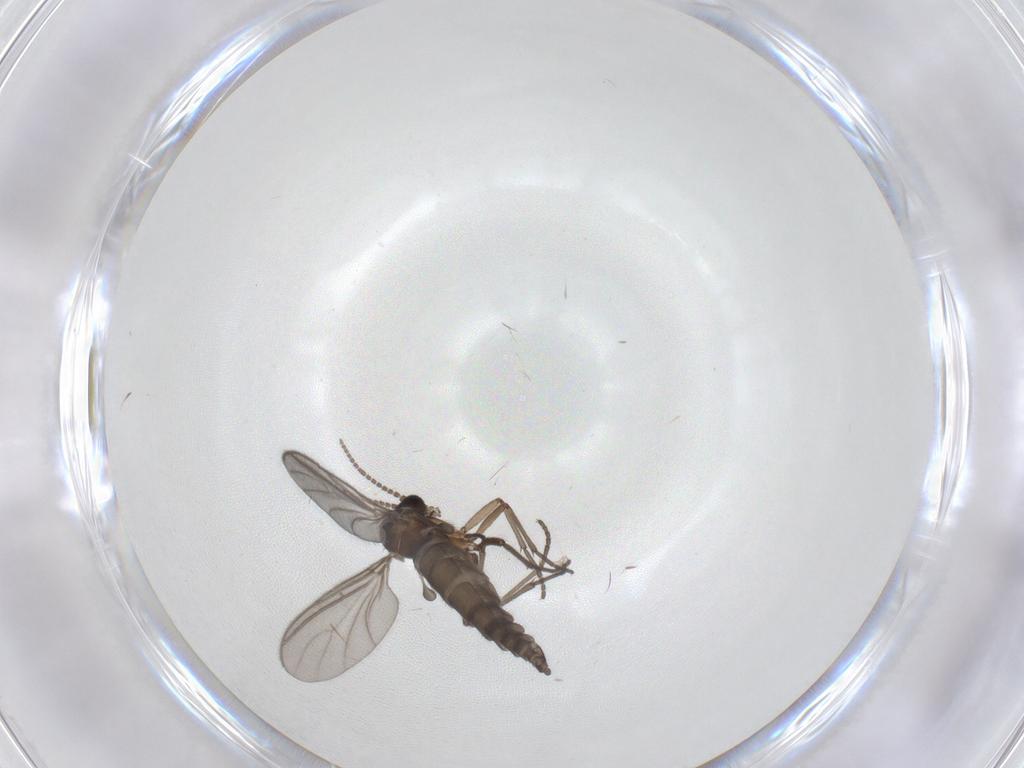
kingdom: Animalia
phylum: Arthropoda
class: Insecta
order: Diptera
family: Sciaridae
